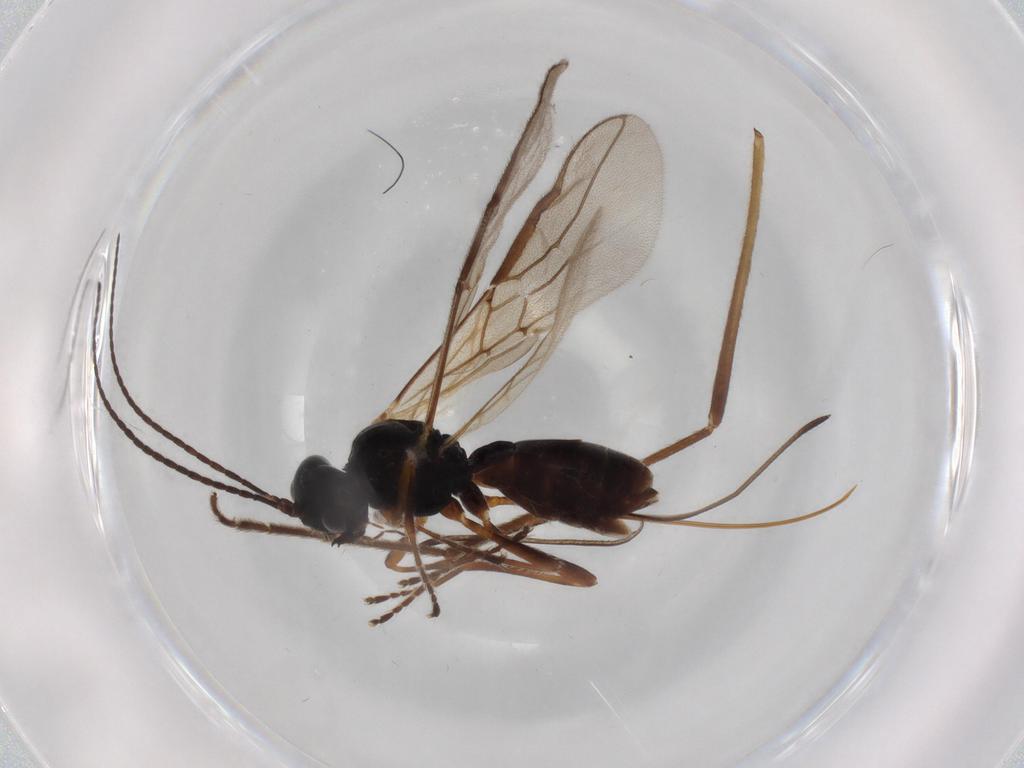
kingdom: Animalia
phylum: Arthropoda
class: Insecta
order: Hymenoptera
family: Braconidae
